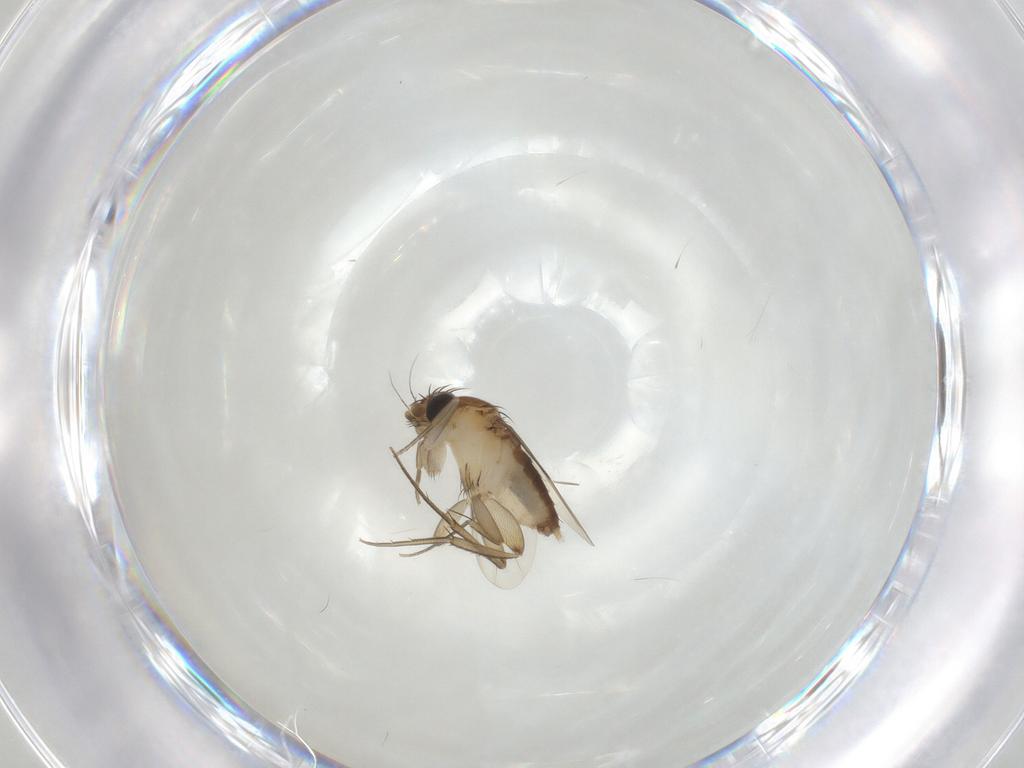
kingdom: Animalia
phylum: Arthropoda
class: Insecta
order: Diptera
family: Phoridae
